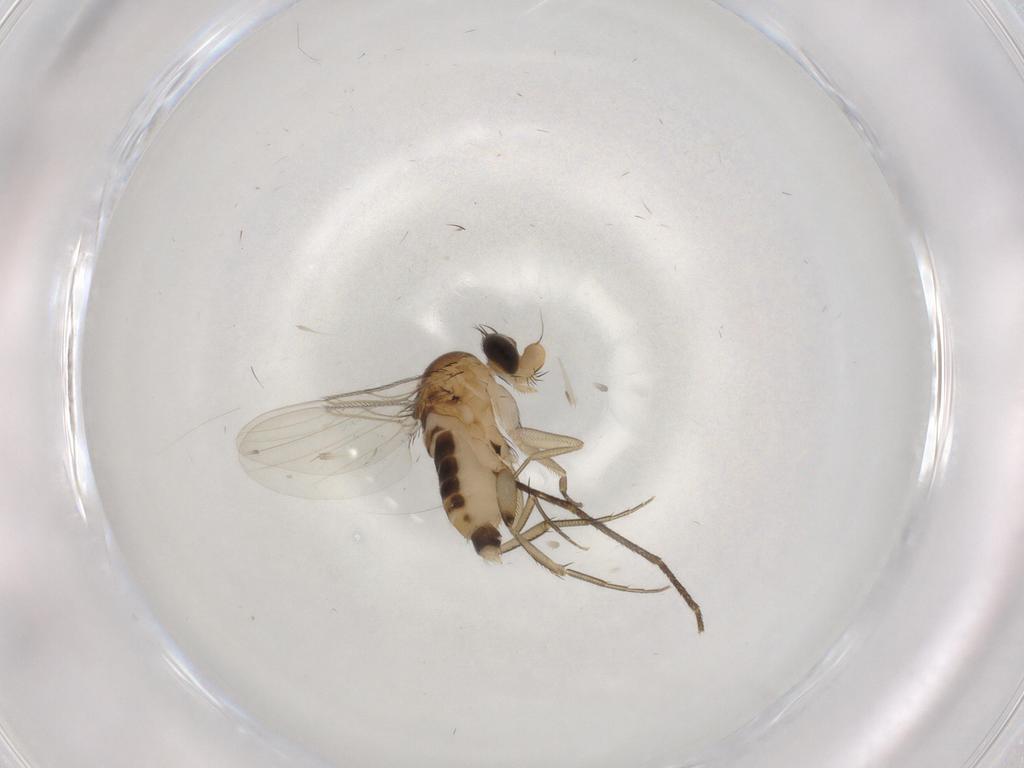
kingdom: Animalia
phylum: Arthropoda
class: Insecta
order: Diptera
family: Phoridae
